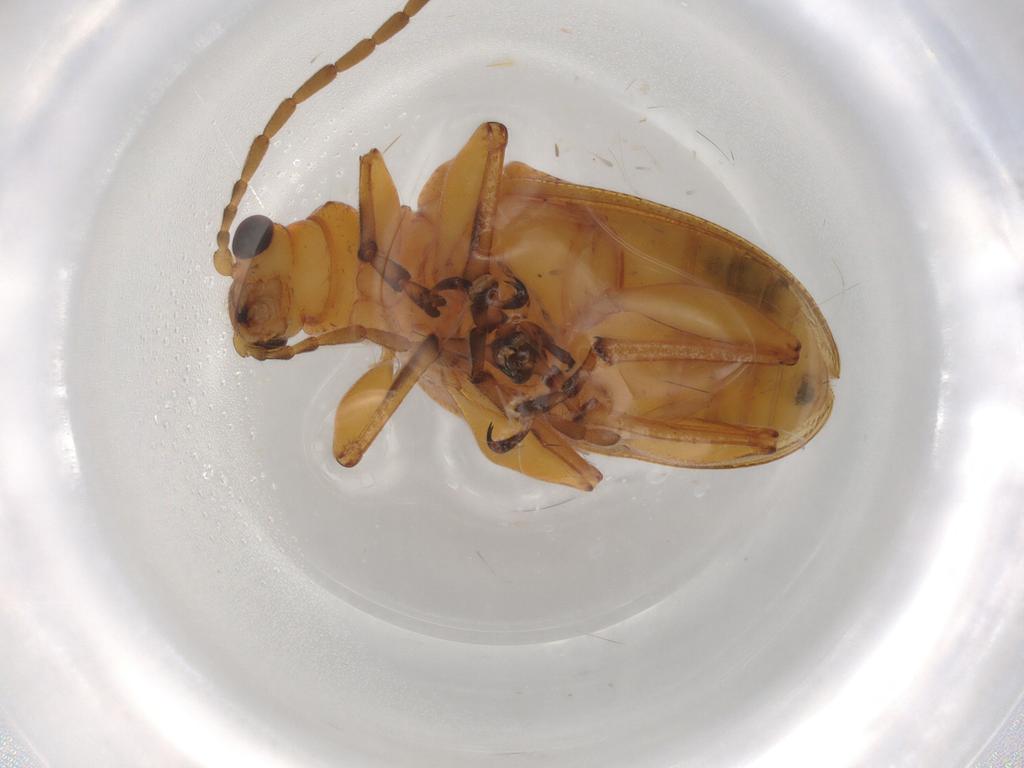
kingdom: Animalia
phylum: Arthropoda
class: Insecta
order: Coleoptera
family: Chrysomelidae
